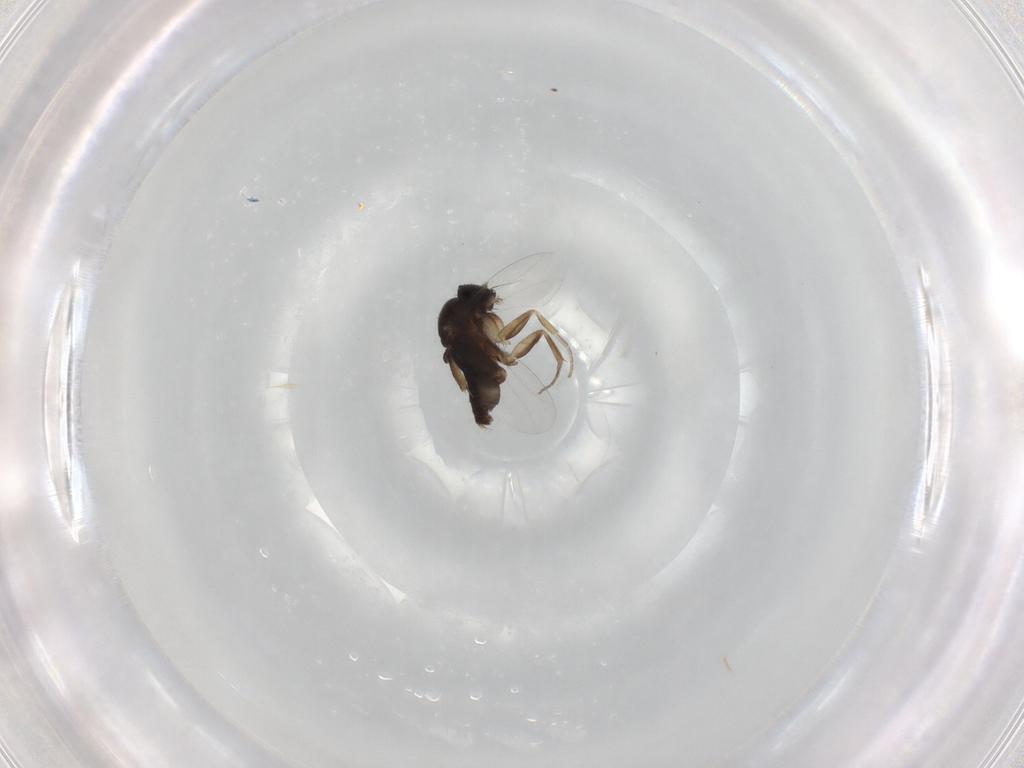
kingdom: Animalia
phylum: Arthropoda
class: Insecta
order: Diptera
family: Phoridae
